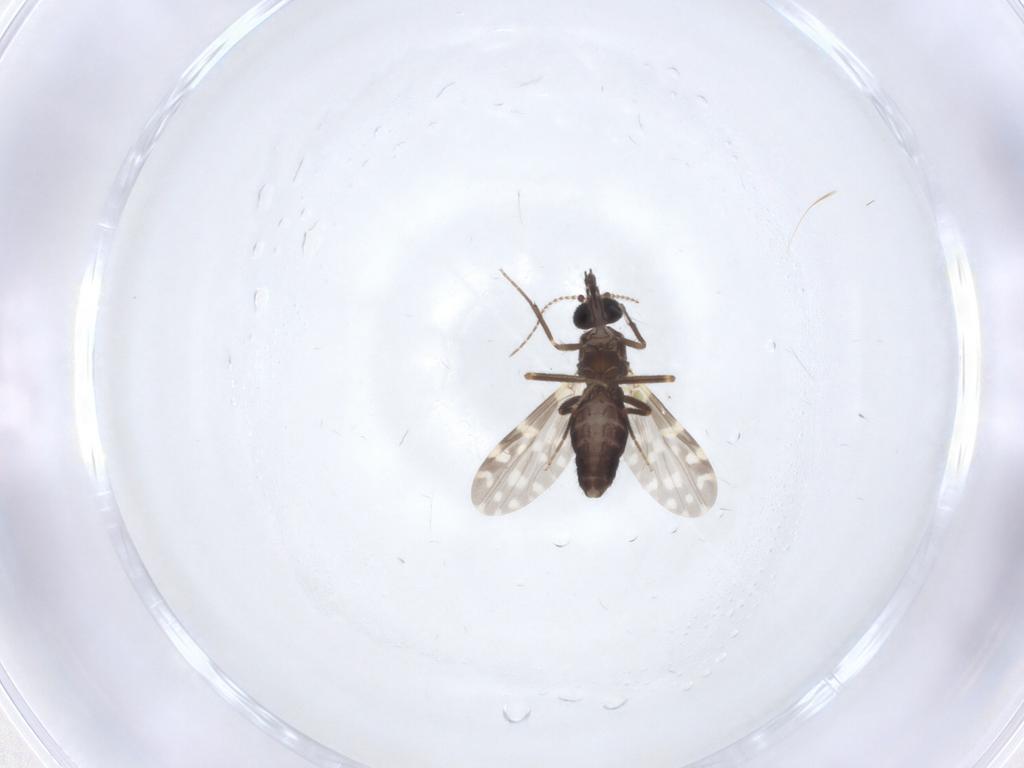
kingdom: Animalia
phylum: Arthropoda
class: Insecta
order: Diptera
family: Ceratopogonidae
